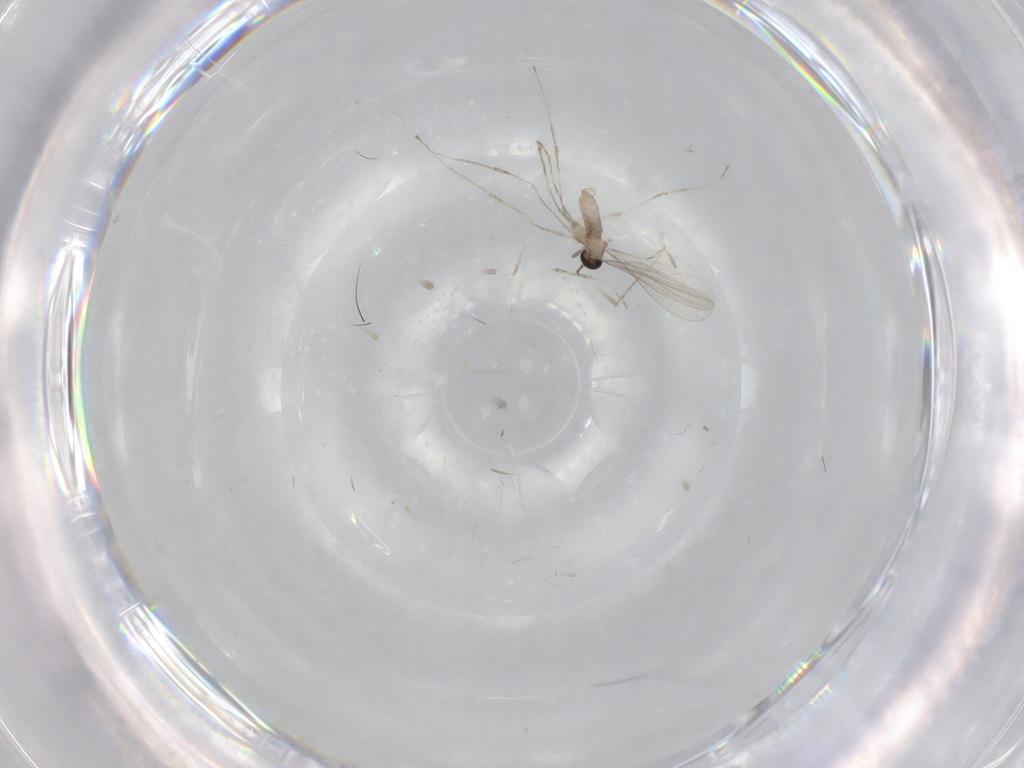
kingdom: Animalia
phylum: Arthropoda
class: Insecta
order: Diptera
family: Cecidomyiidae
